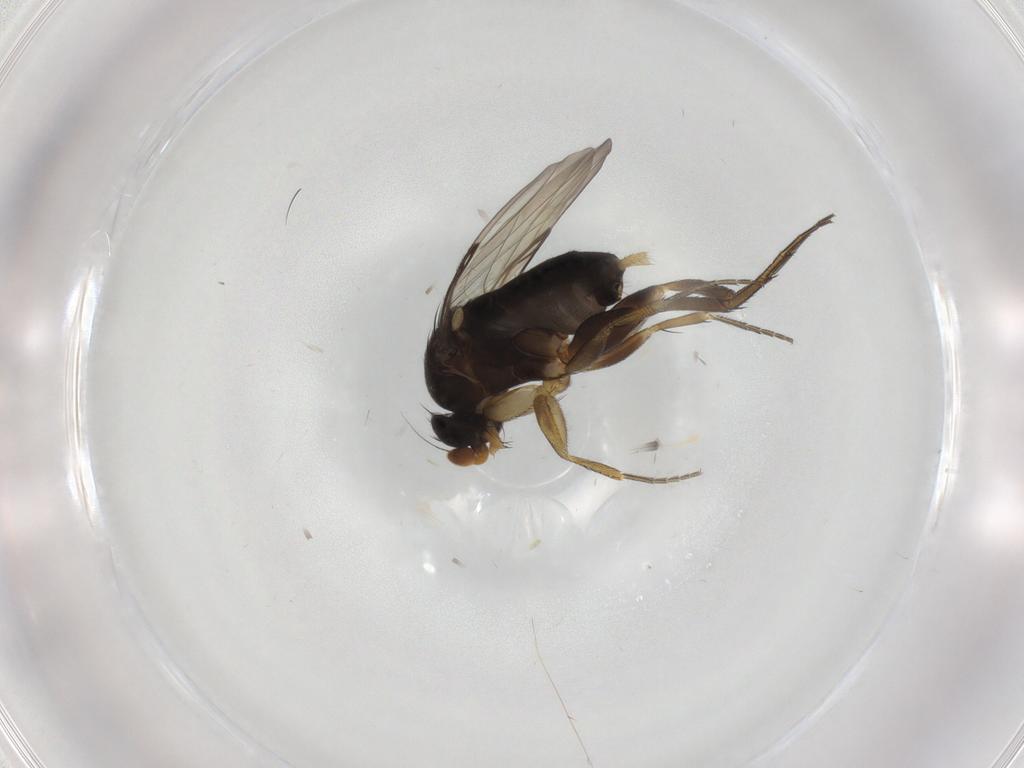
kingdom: Animalia
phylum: Arthropoda
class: Insecta
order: Diptera
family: Phoridae
